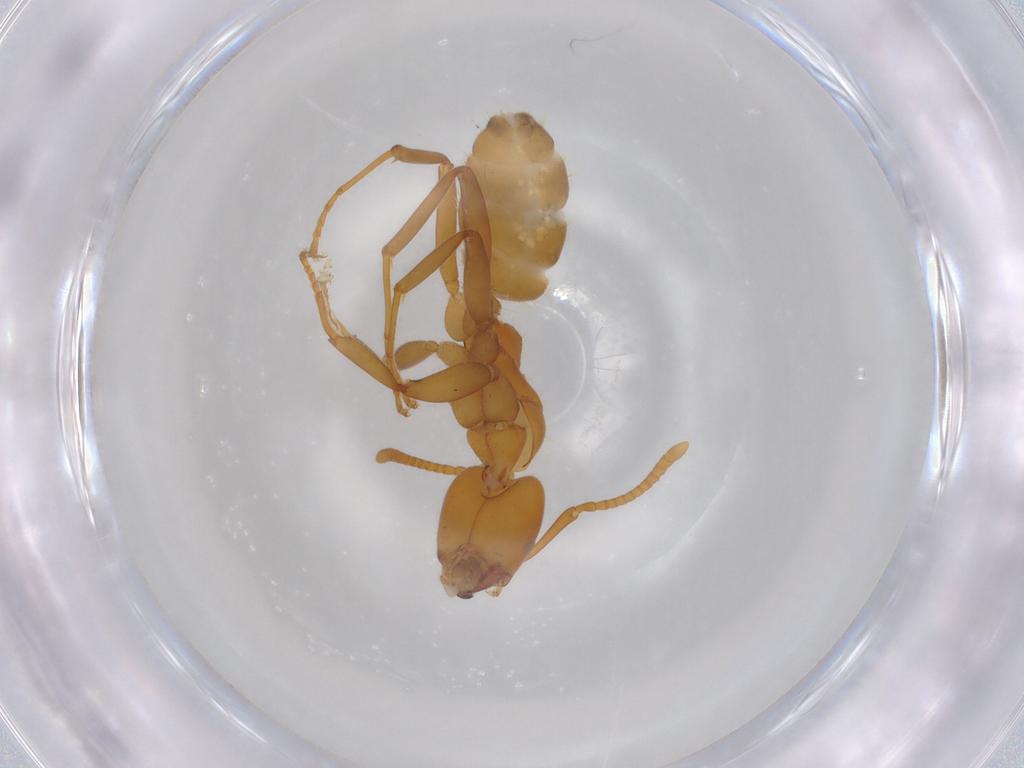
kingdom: Animalia
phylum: Arthropoda
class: Insecta
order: Hymenoptera
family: Formicidae
